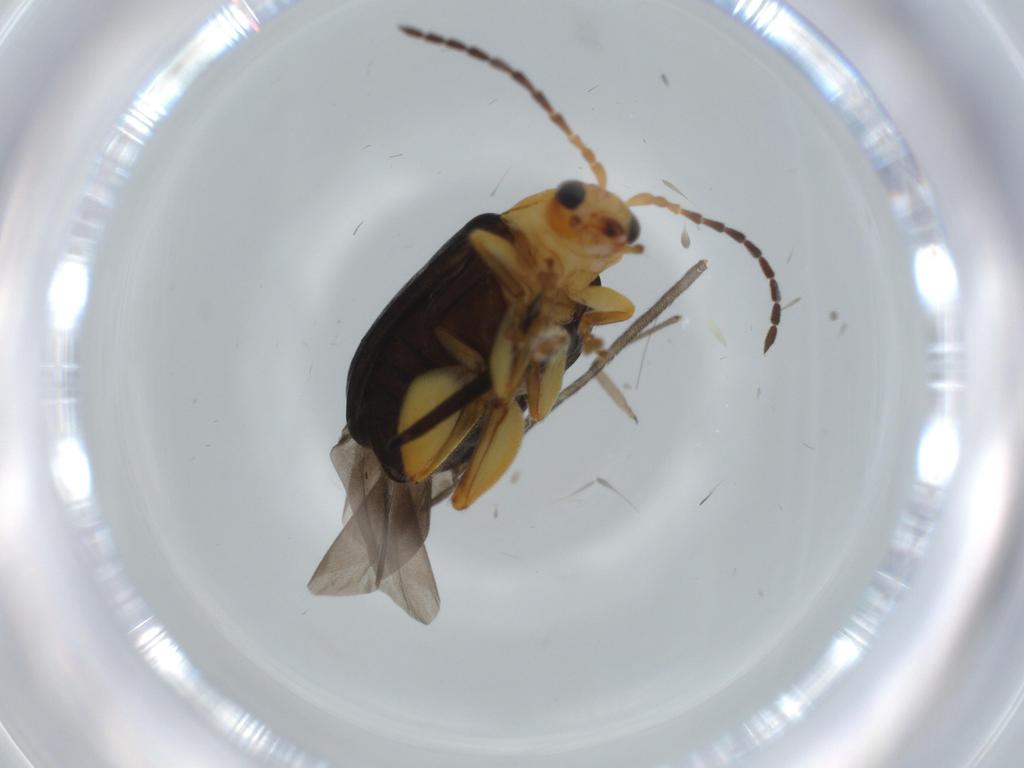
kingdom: Animalia
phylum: Arthropoda
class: Insecta
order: Coleoptera
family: Chrysomelidae
